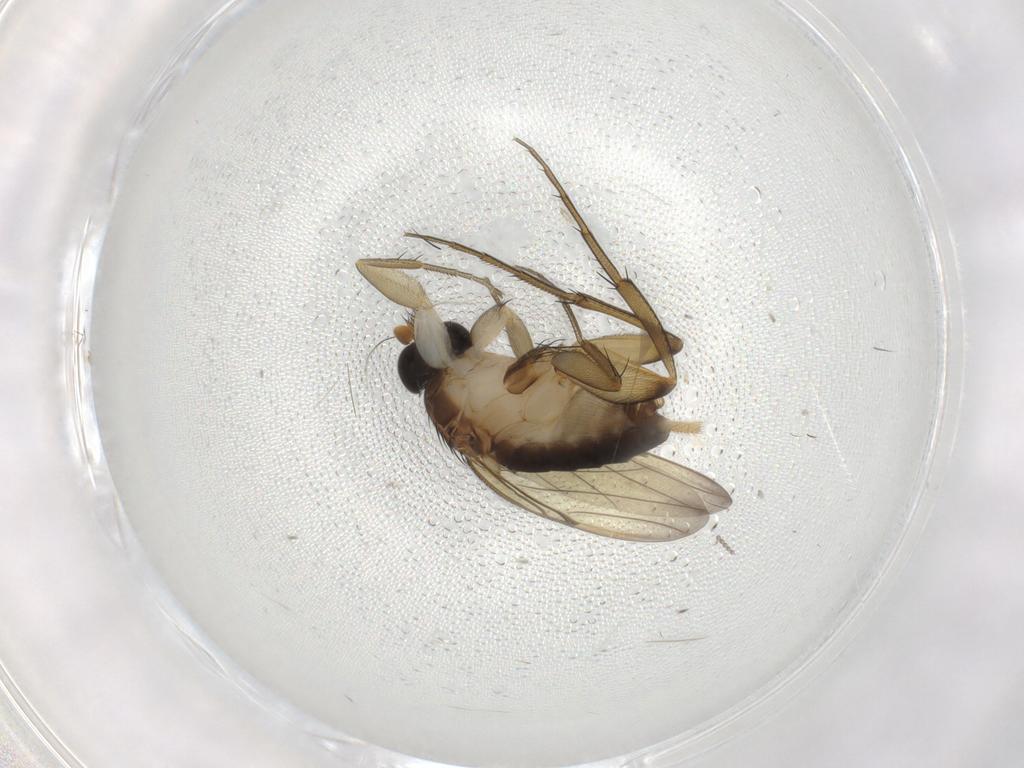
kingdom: Animalia
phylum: Arthropoda
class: Insecta
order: Diptera
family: Phoridae
